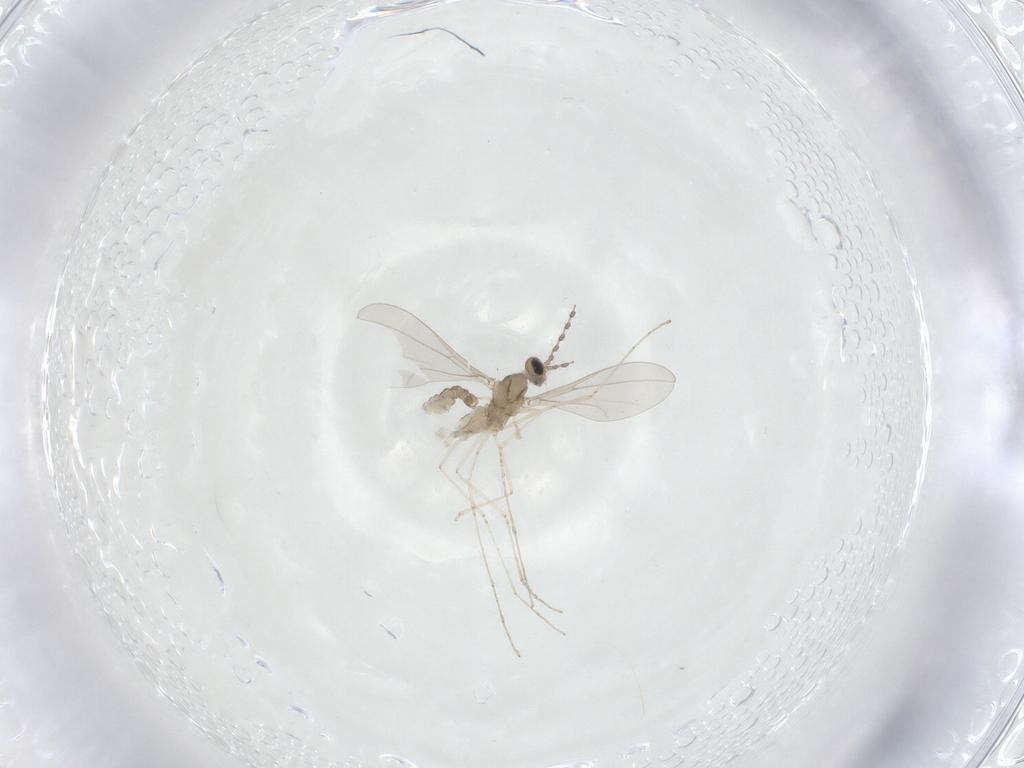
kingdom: Animalia
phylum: Arthropoda
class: Insecta
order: Diptera
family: Cecidomyiidae
